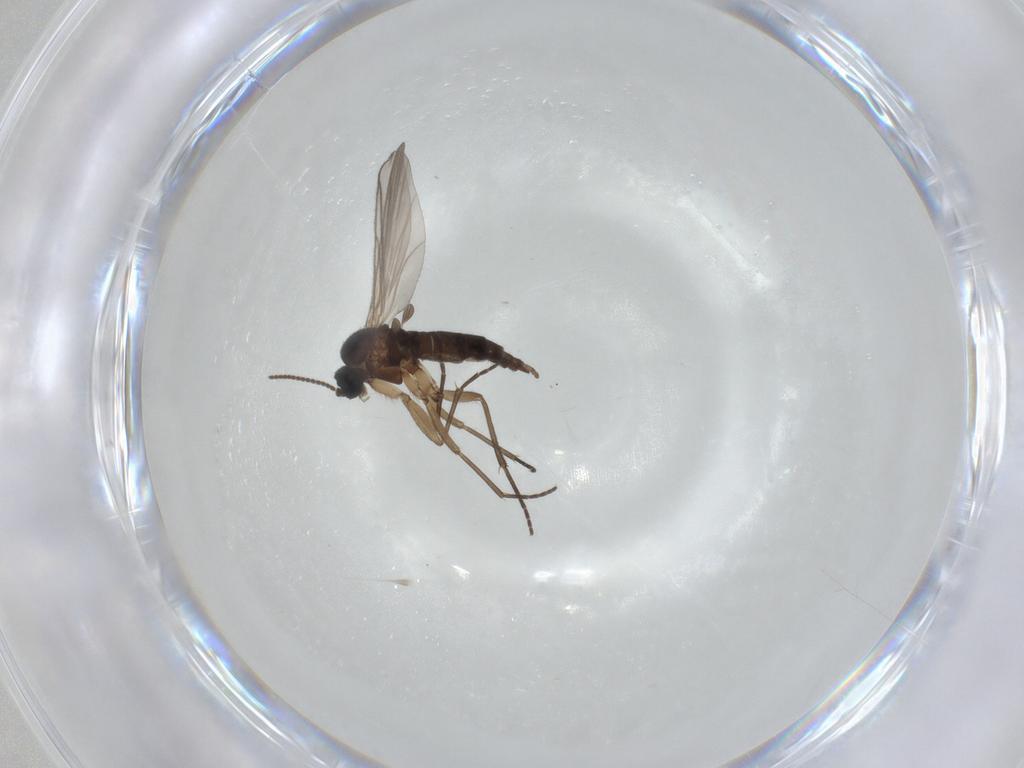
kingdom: Animalia
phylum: Arthropoda
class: Insecta
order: Diptera
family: Sciaridae
